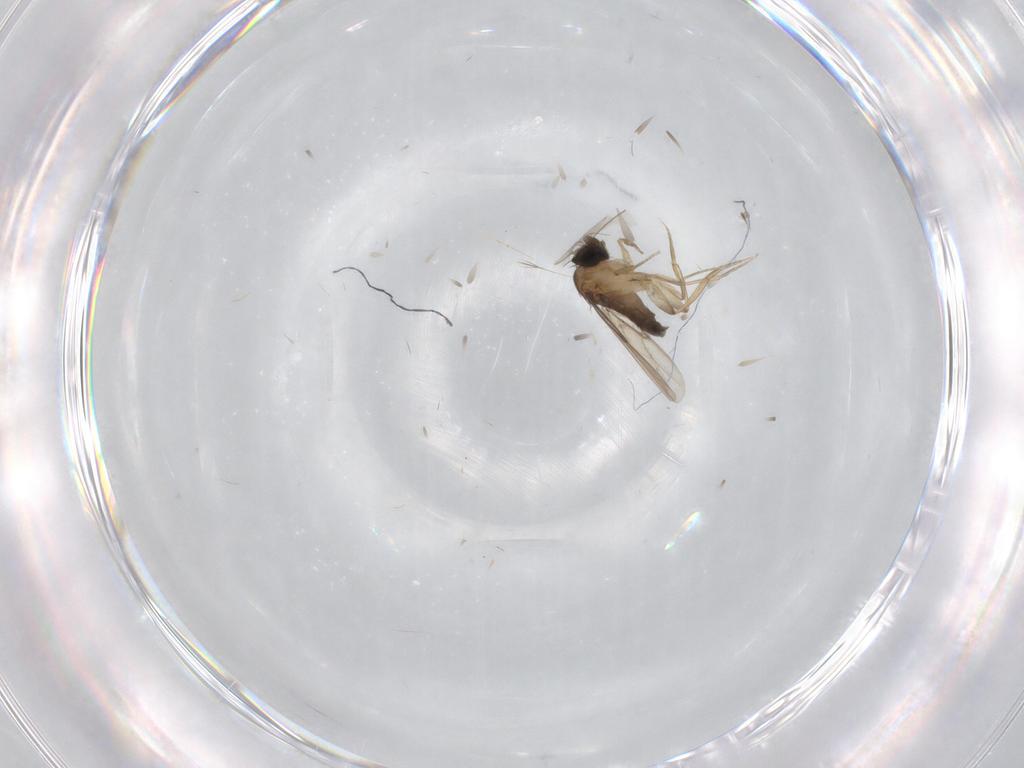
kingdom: Animalia
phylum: Arthropoda
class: Insecta
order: Diptera
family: Phoridae
